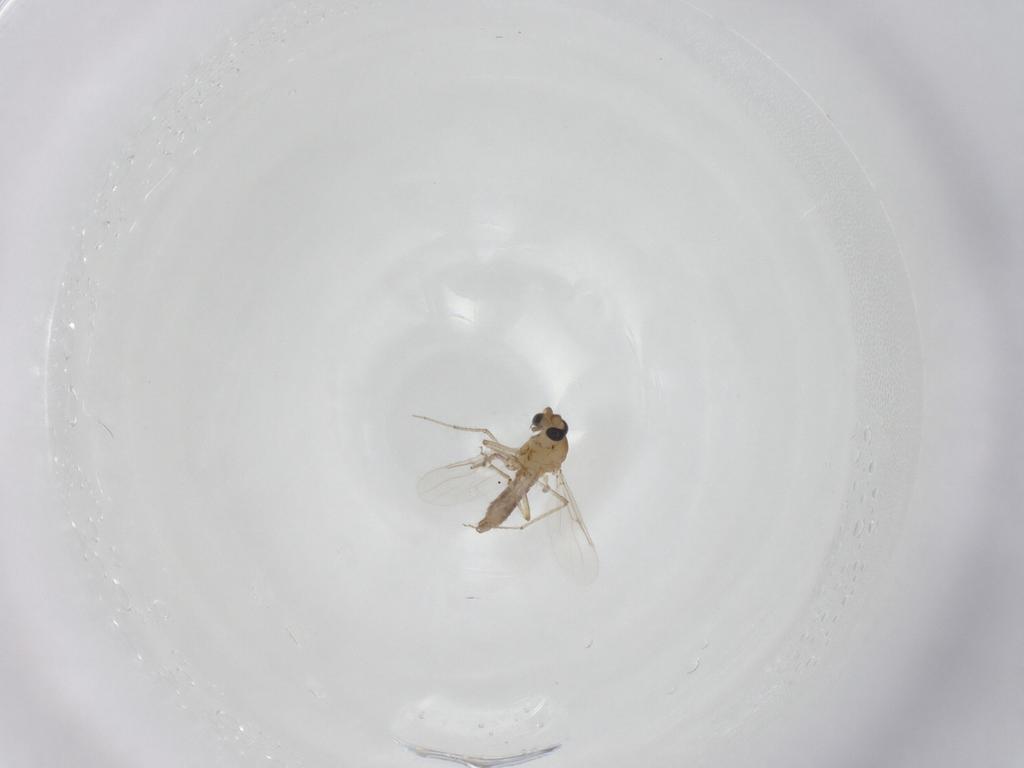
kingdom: Animalia
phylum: Arthropoda
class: Insecta
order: Diptera
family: Ceratopogonidae
